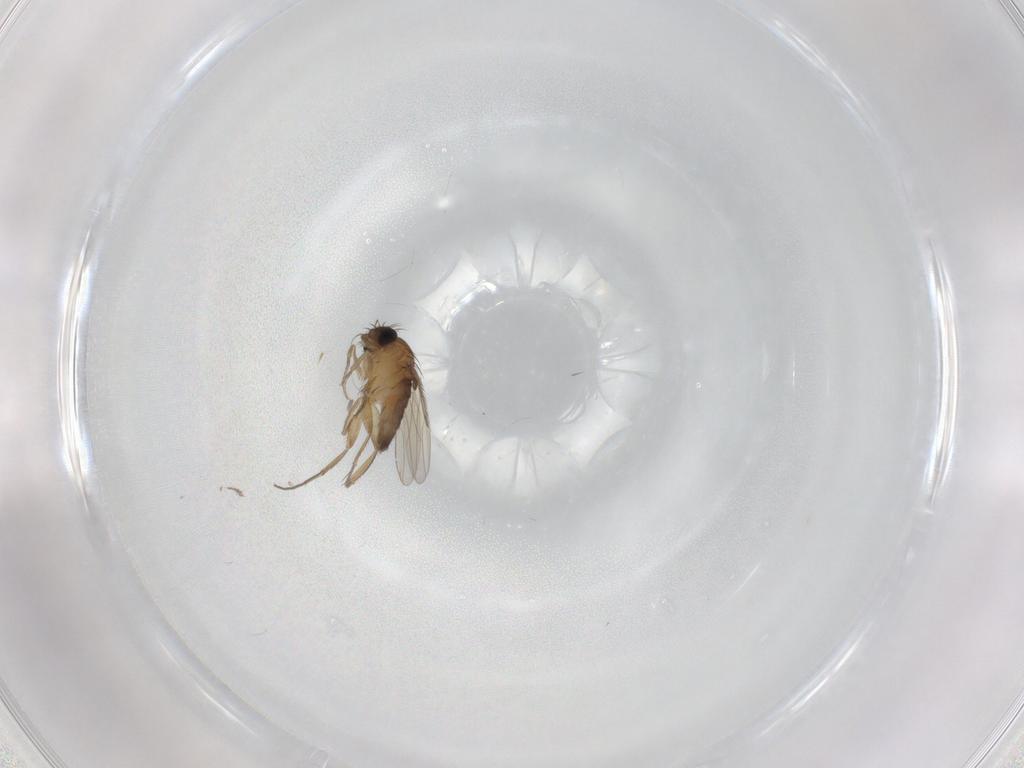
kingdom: Animalia
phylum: Arthropoda
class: Insecta
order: Diptera
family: Phoridae
